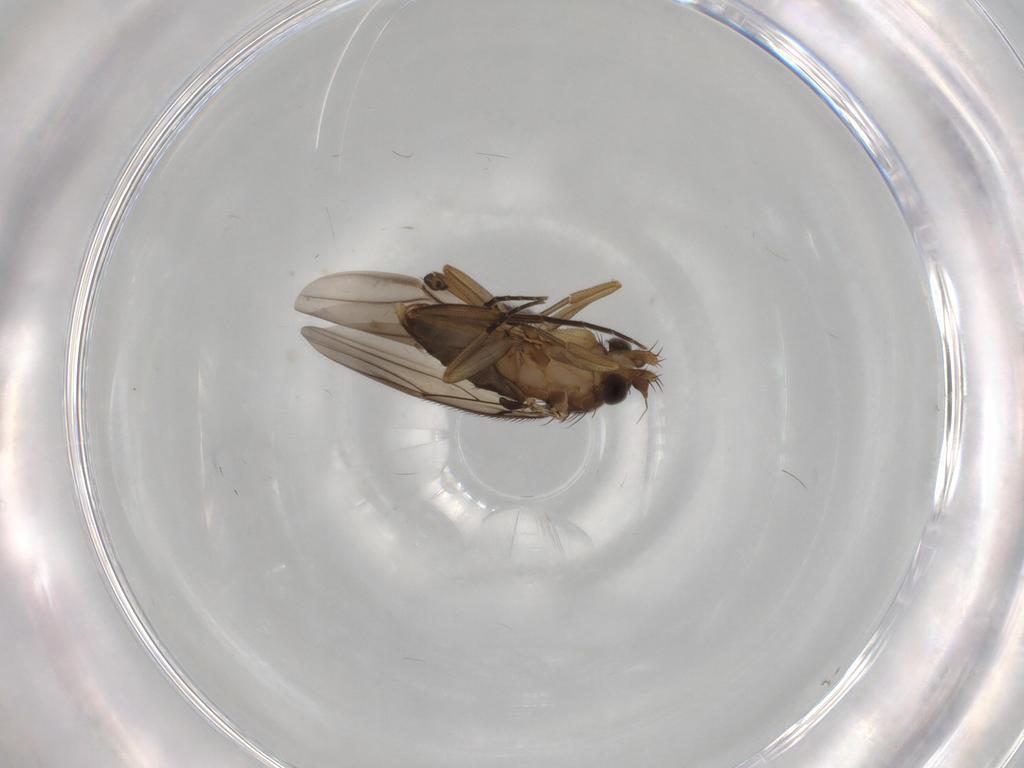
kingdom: Animalia
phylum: Arthropoda
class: Insecta
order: Diptera
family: Phoridae
